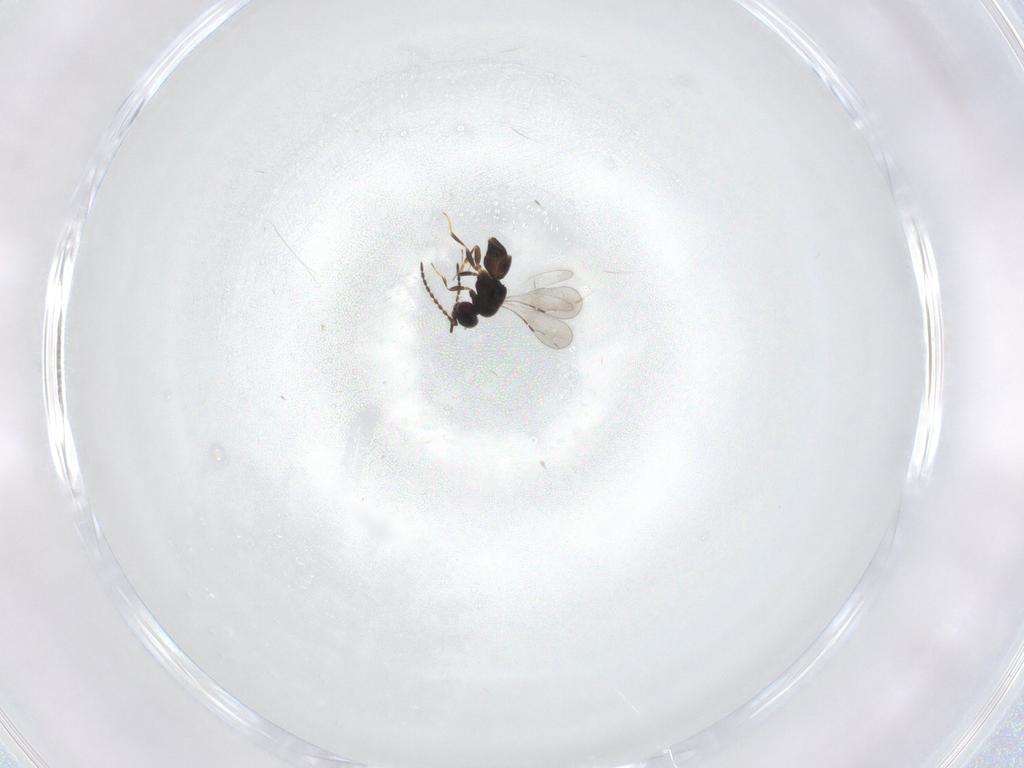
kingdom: Animalia
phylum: Arthropoda
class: Insecta
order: Hymenoptera
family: Scelionidae
